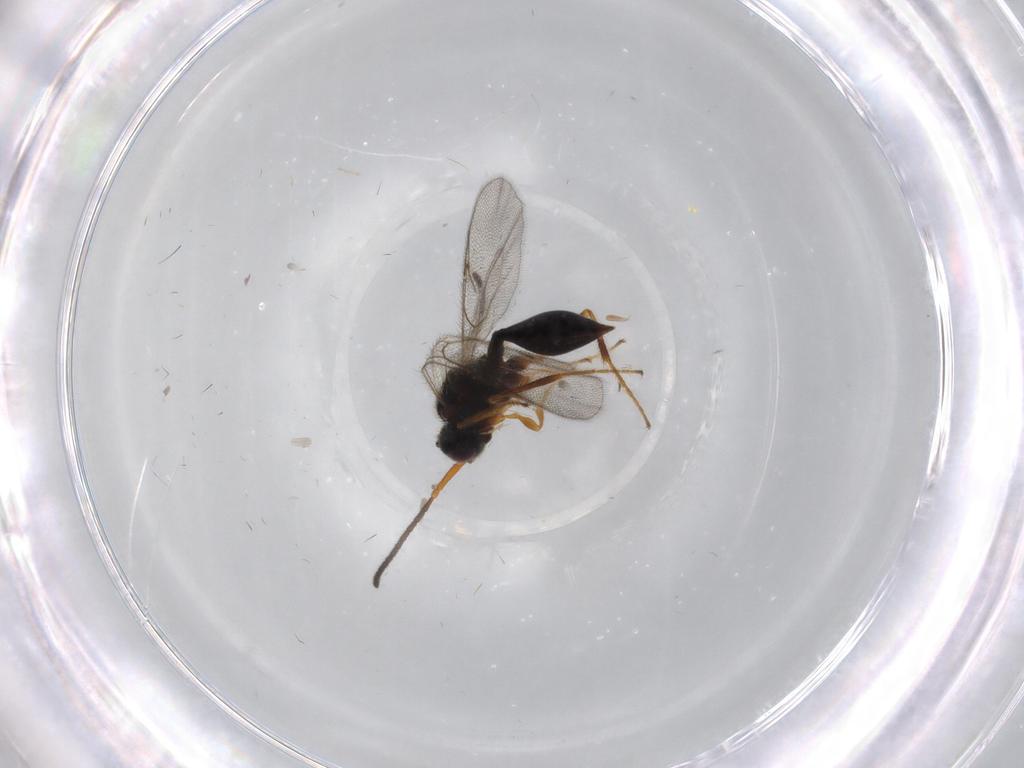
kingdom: Animalia
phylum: Arthropoda
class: Insecta
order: Hymenoptera
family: Diapriidae
